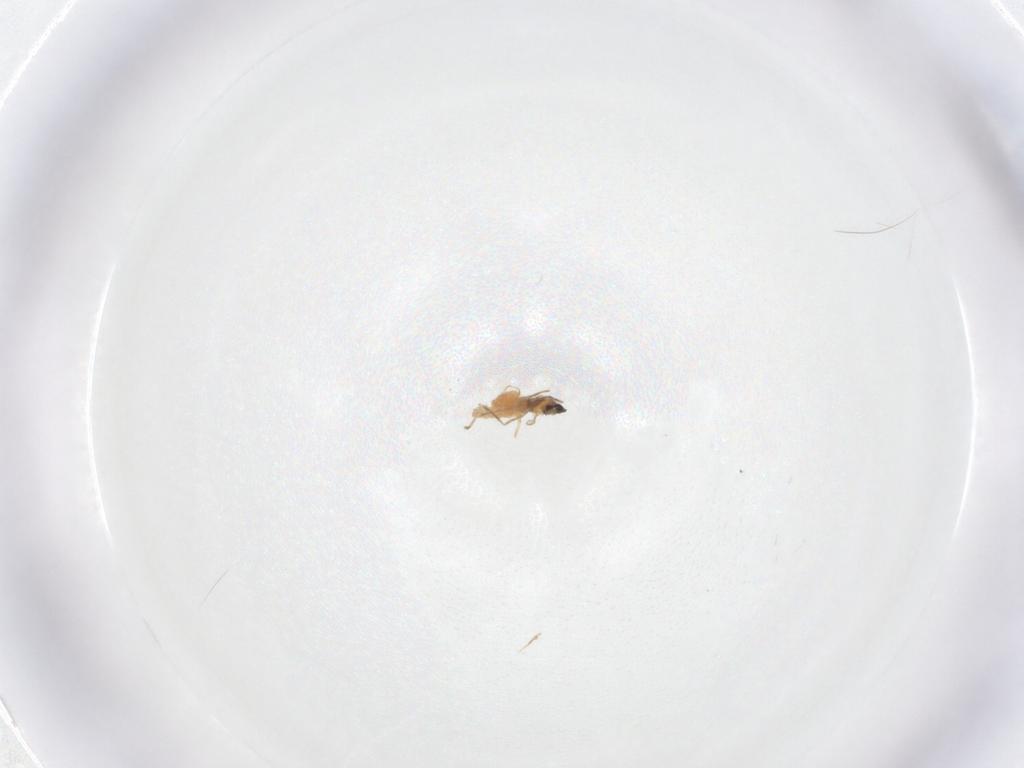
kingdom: Animalia
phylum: Arthropoda
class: Insecta
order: Diptera
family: Cecidomyiidae
